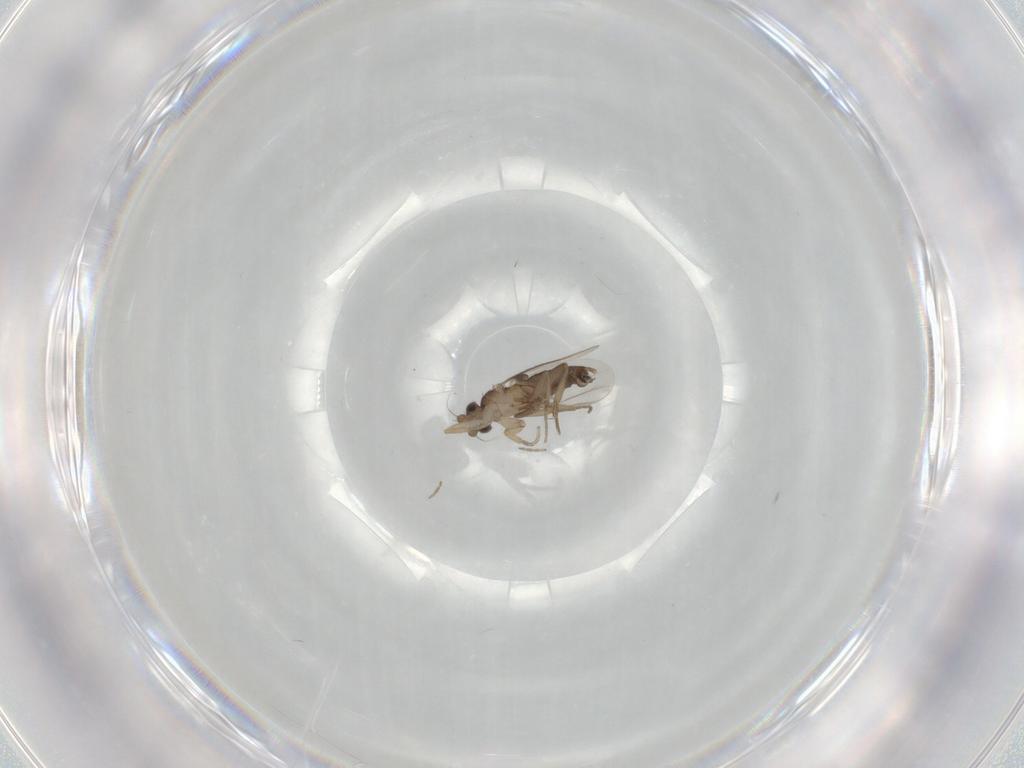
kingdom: Animalia
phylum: Arthropoda
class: Insecta
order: Diptera
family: Phoridae
